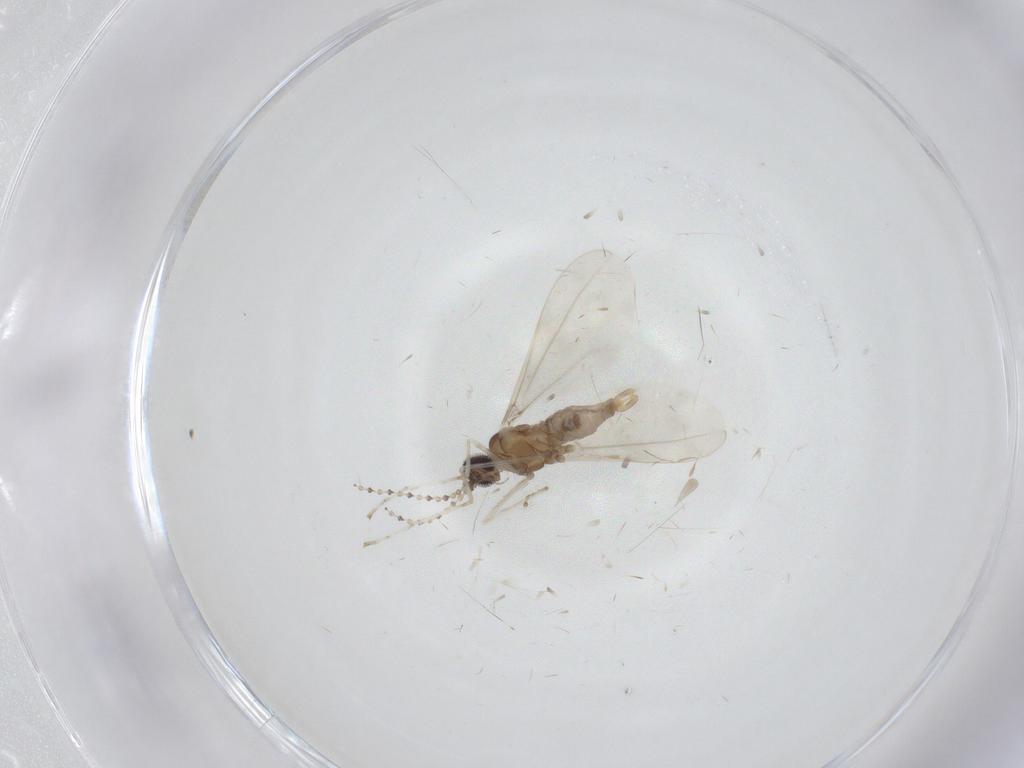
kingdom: Animalia
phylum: Arthropoda
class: Insecta
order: Diptera
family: Cecidomyiidae
